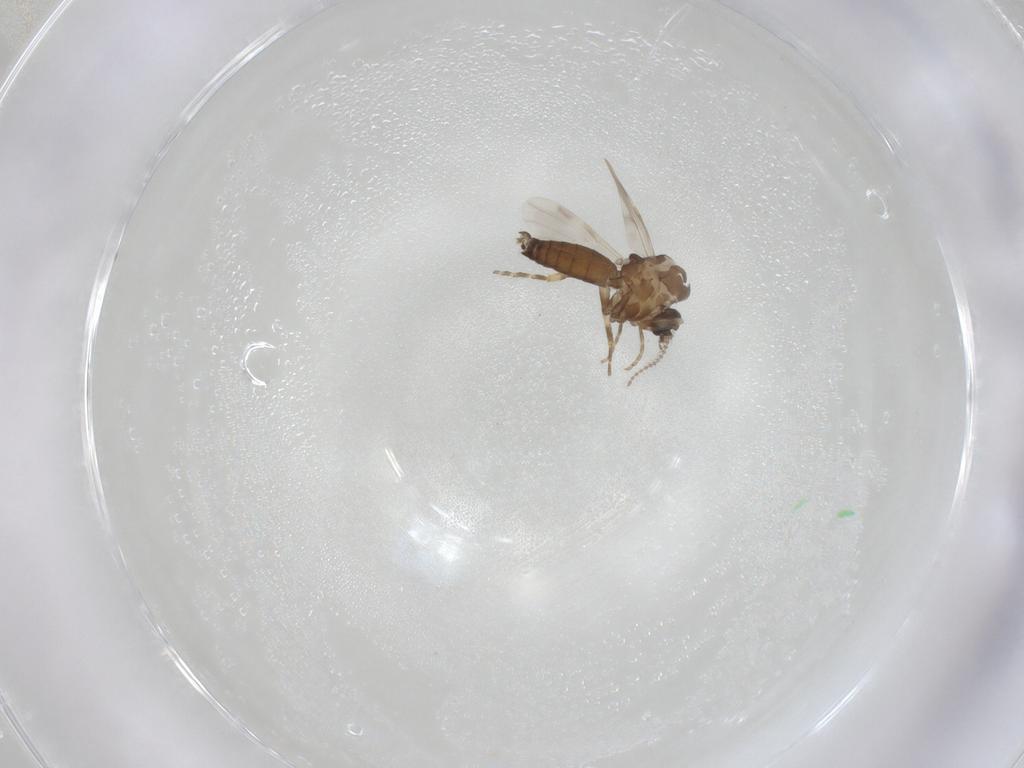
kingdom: Animalia
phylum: Arthropoda
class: Insecta
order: Diptera
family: Ceratopogonidae
